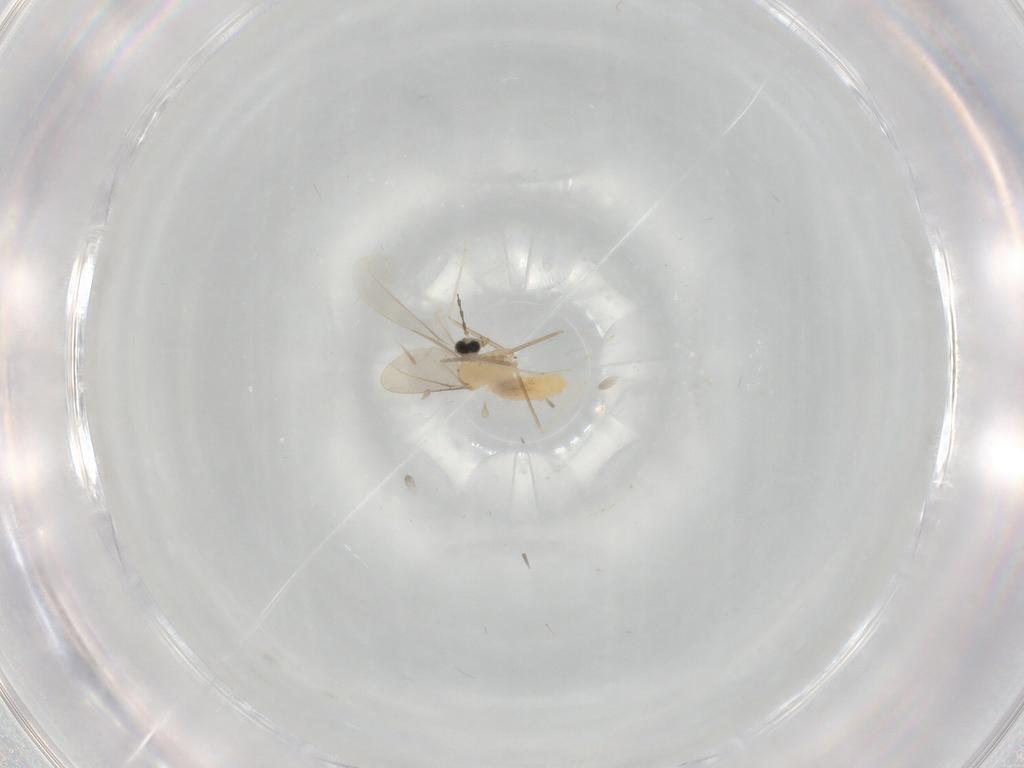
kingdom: Animalia
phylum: Arthropoda
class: Insecta
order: Diptera
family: Cecidomyiidae
